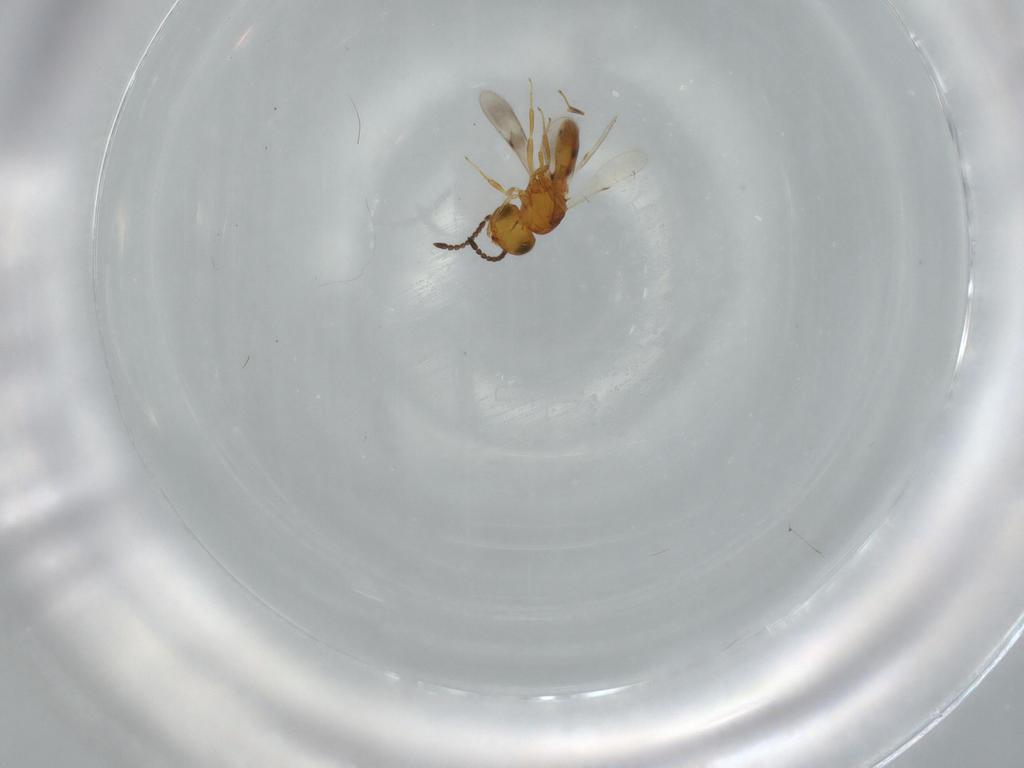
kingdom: Animalia
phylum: Arthropoda
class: Insecta
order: Hymenoptera
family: Scelionidae
